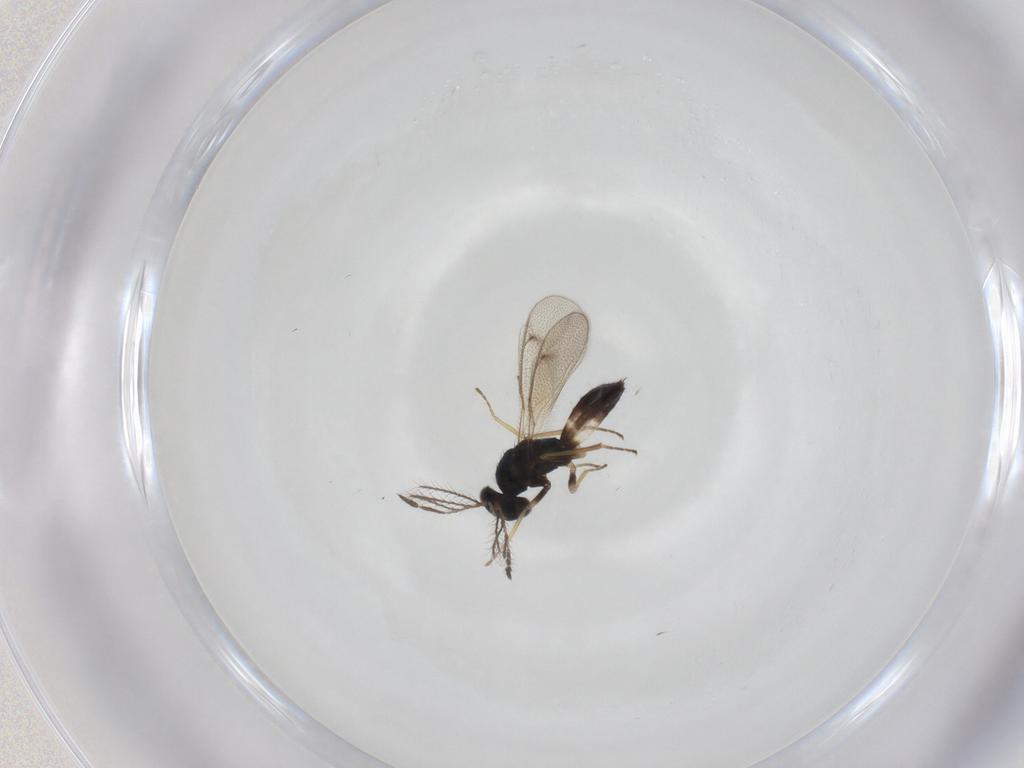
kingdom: Animalia
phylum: Arthropoda
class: Insecta
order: Hymenoptera
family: Eulophidae
